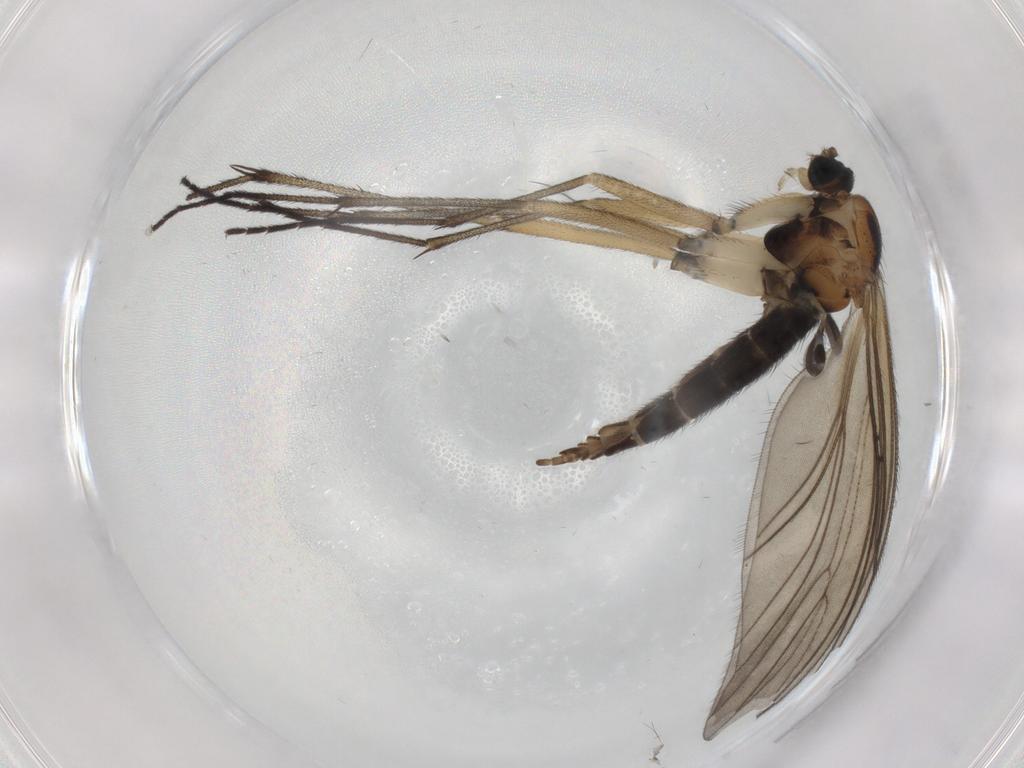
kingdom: Animalia
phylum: Arthropoda
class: Insecta
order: Diptera
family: Sciaridae
